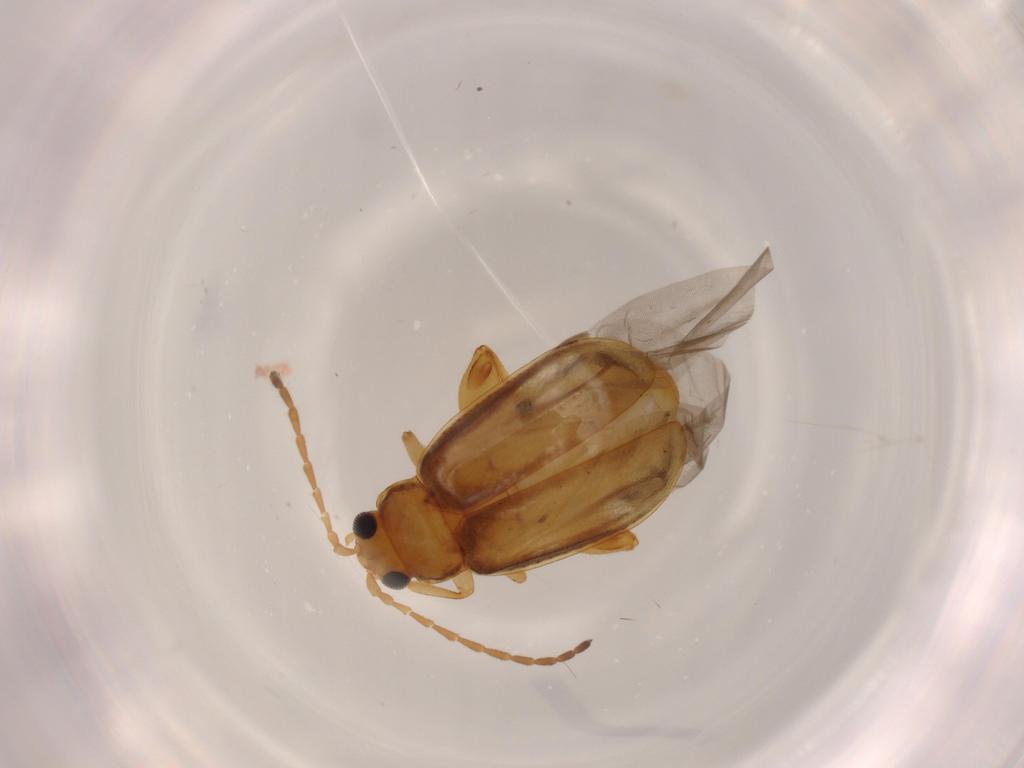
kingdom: Animalia
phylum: Arthropoda
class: Insecta
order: Coleoptera
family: Chrysomelidae
